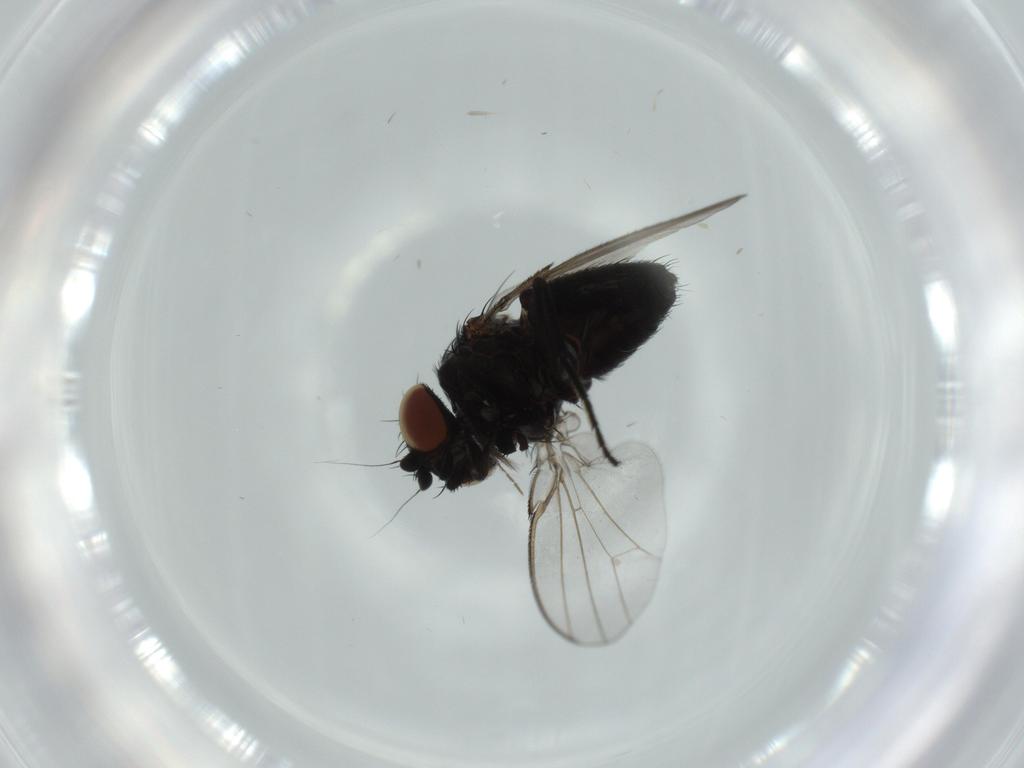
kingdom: Animalia
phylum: Arthropoda
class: Insecta
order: Diptera
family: Milichiidae
